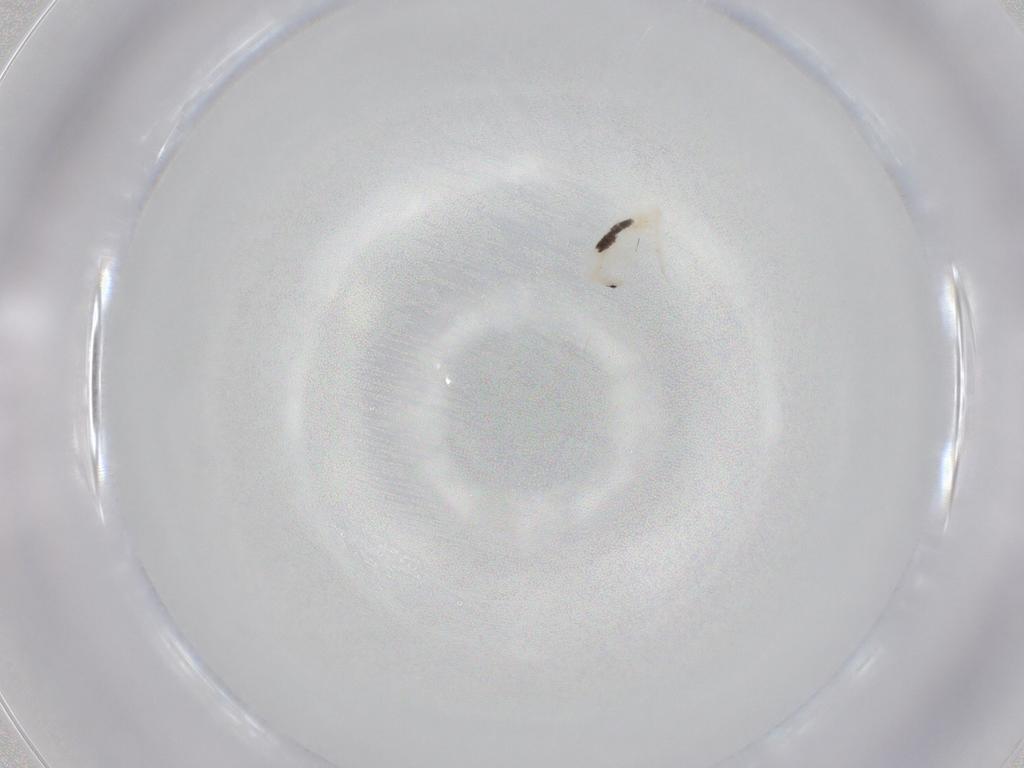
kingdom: Animalia
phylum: Arthropoda
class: Collembola
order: Entomobryomorpha
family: Entomobryidae
